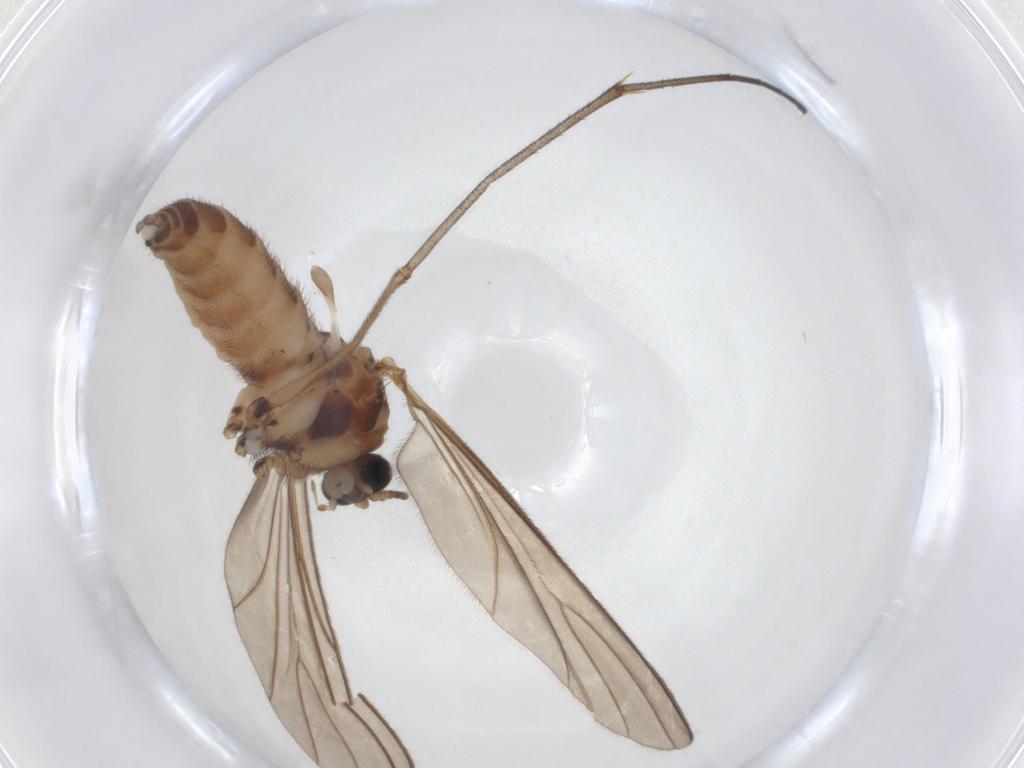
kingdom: Animalia
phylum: Arthropoda
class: Insecta
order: Diptera
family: Sciaridae
